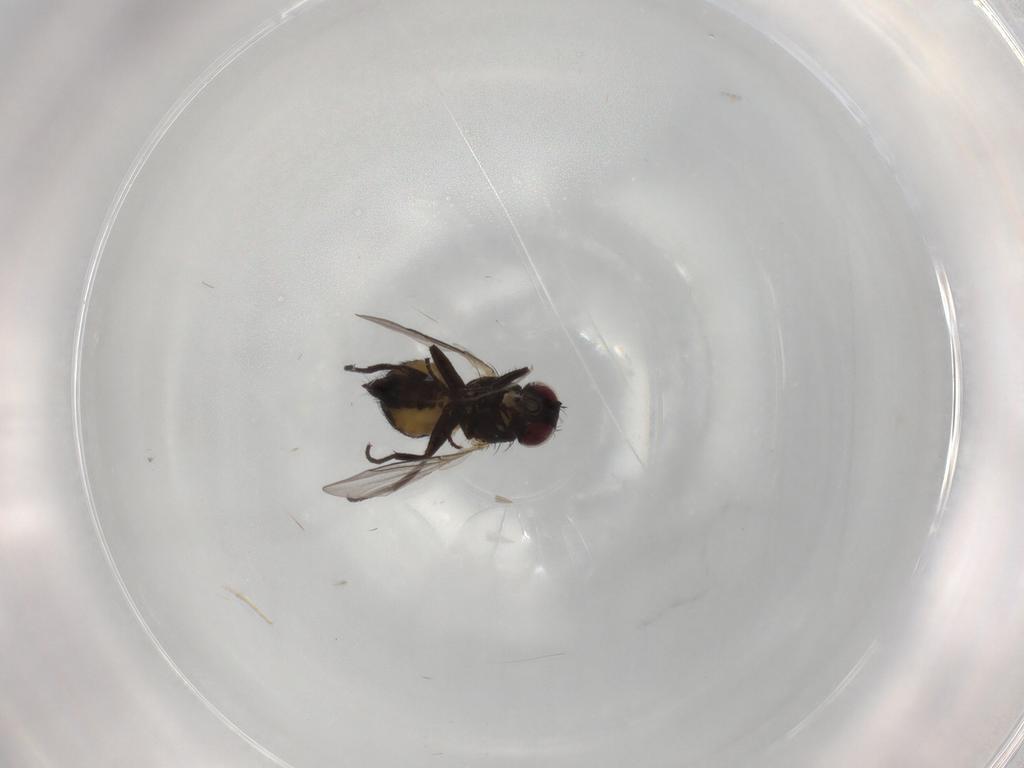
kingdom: Animalia
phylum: Arthropoda
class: Insecta
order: Diptera
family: Agromyzidae
